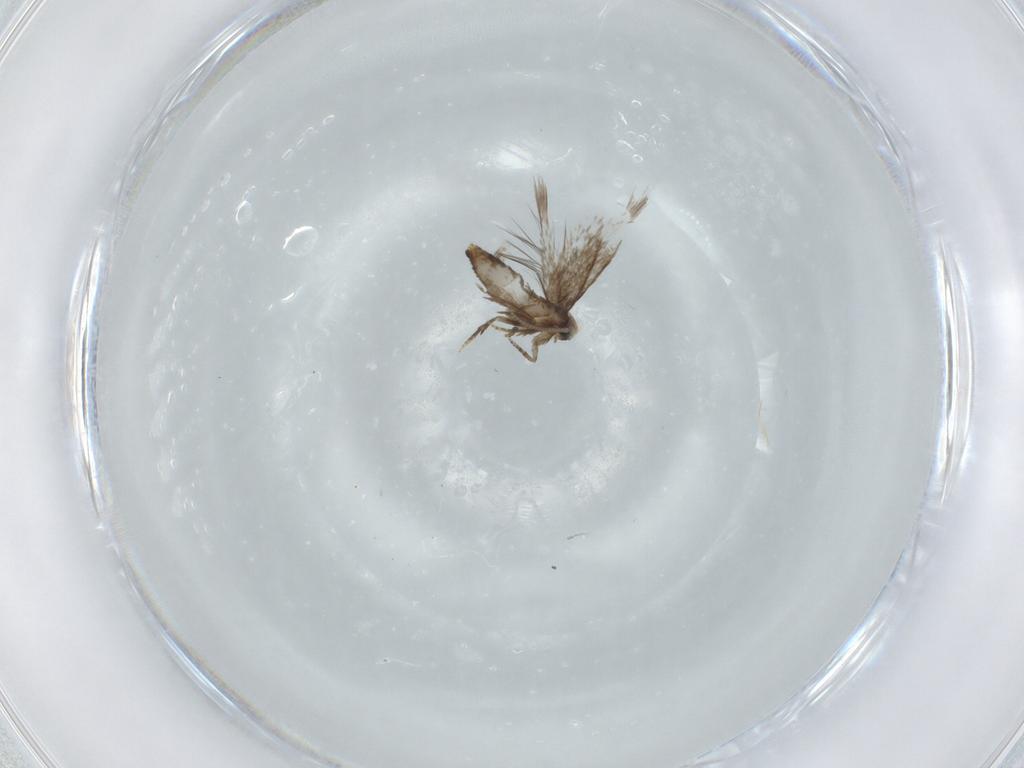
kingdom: Animalia
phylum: Arthropoda
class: Insecta
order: Lepidoptera
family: Nepticulidae
